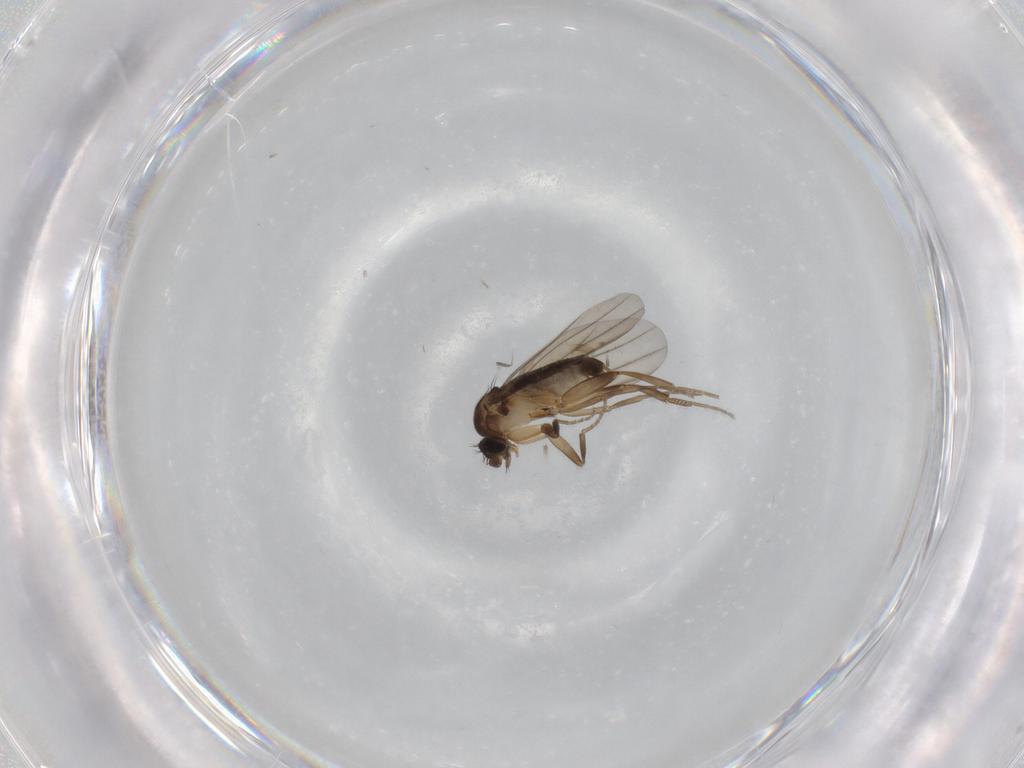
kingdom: Animalia
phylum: Arthropoda
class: Insecta
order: Diptera
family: Phoridae
